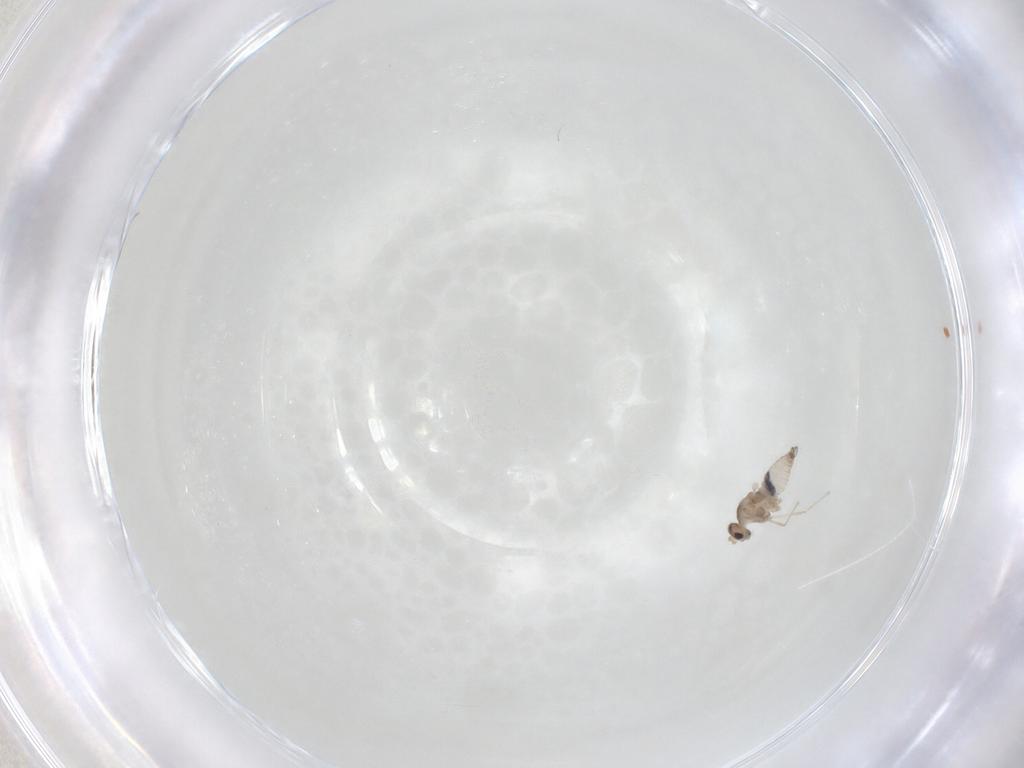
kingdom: Animalia
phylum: Arthropoda
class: Insecta
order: Diptera
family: Cecidomyiidae
